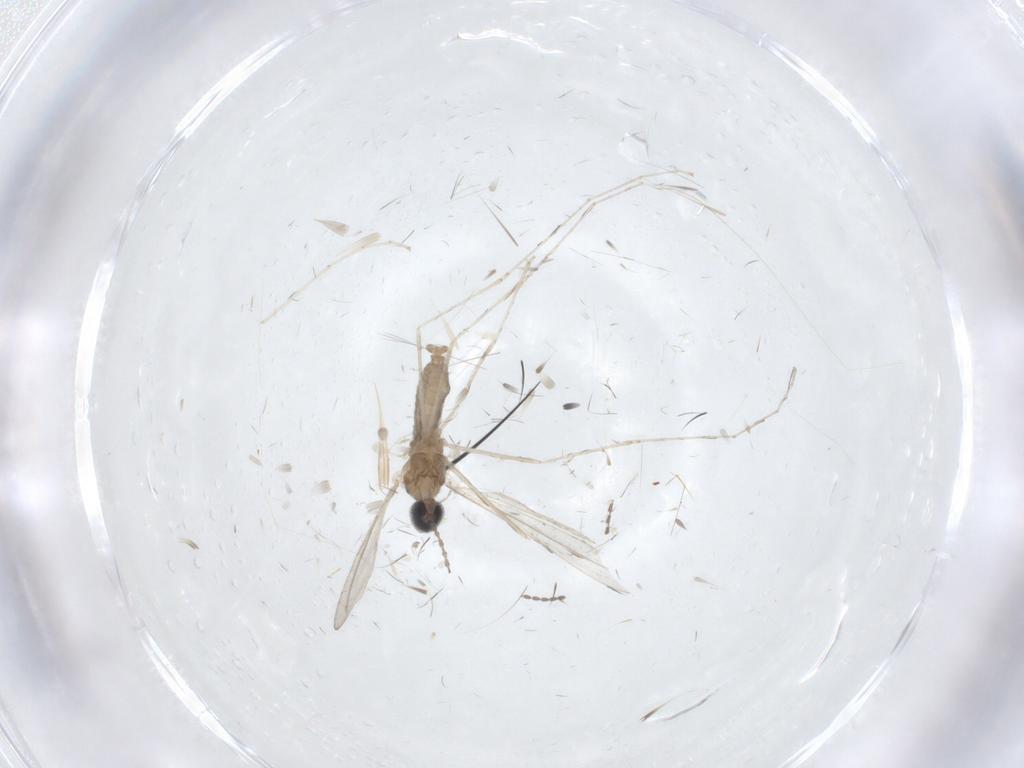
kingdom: Animalia
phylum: Arthropoda
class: Insecta
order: Diptera
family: Cecidomyiidae
